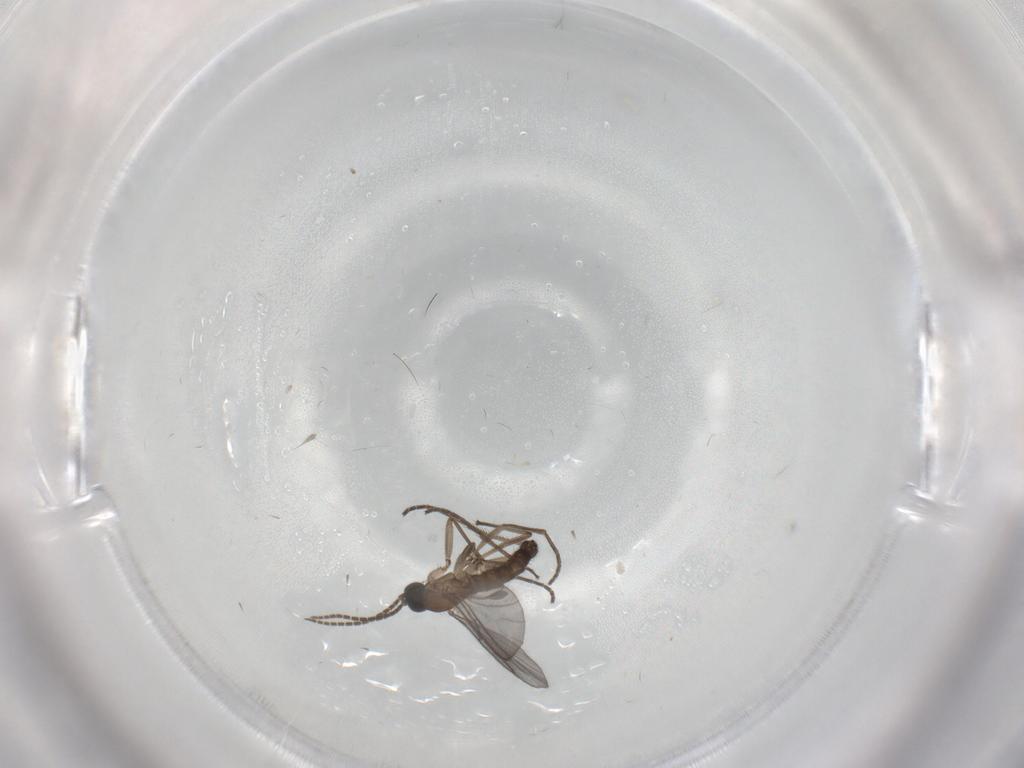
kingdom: Animalia
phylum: Arthropoda
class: Insecta
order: Diptera
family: Sciaridae
